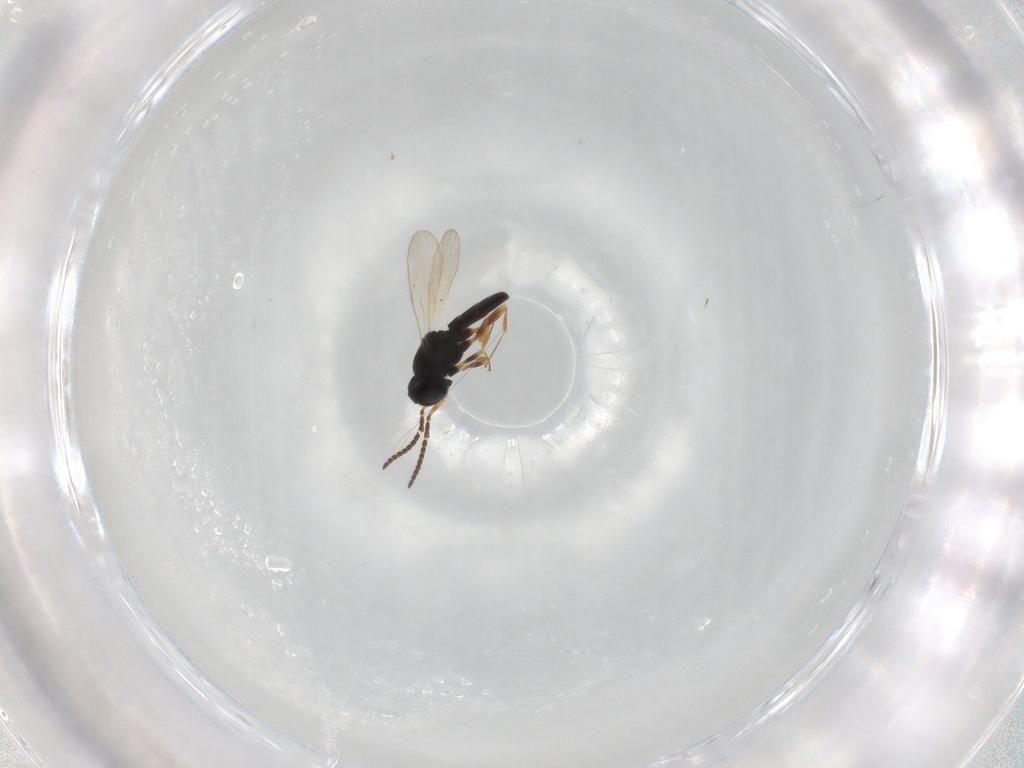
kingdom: Animalia
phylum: Arthropoda
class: Insecta
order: Hymenoptera
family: Scelionidae
